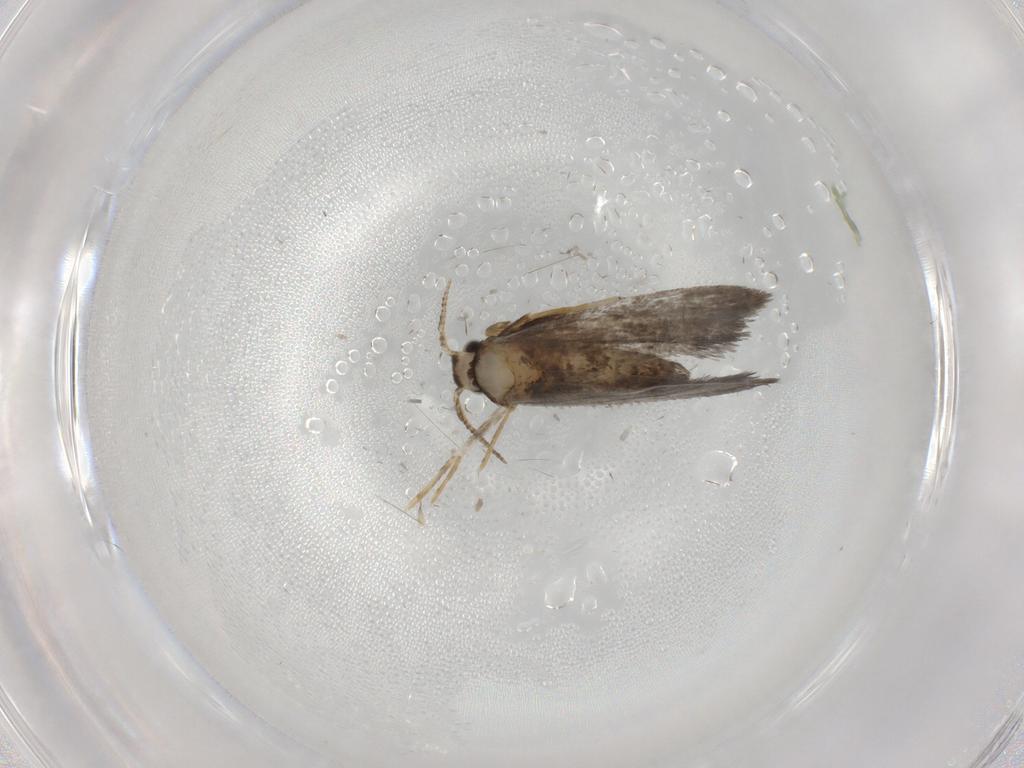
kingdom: Animalia
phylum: Arthropoda
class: Insecta
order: Lepidoptera
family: Psychidae
